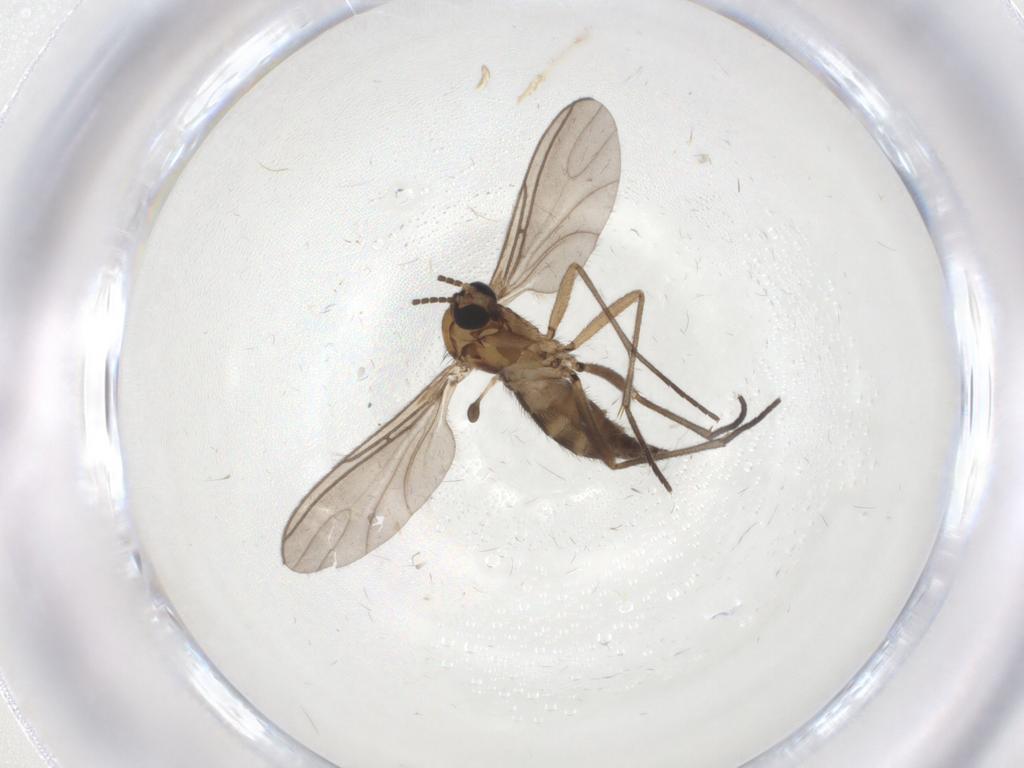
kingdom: Animalia
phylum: Arthropoda
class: Insecta
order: Diptera
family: Sciaridae
